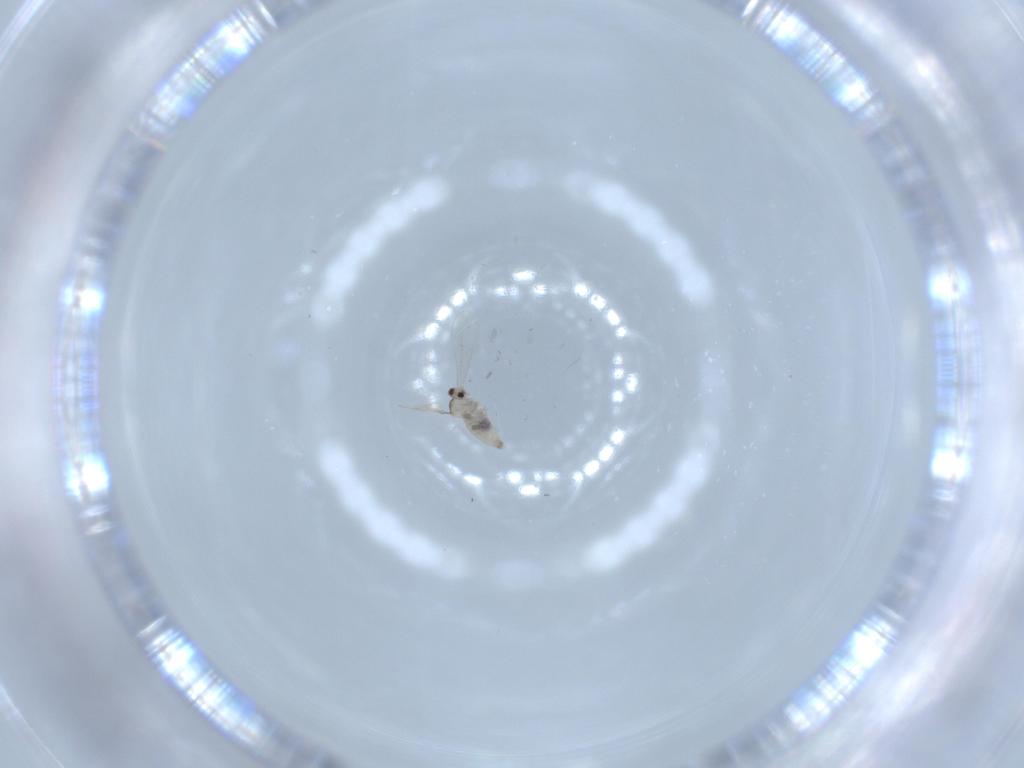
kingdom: Animalia
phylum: Arthropoda
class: Insecta
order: Diptera
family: Cecidomyiidae
